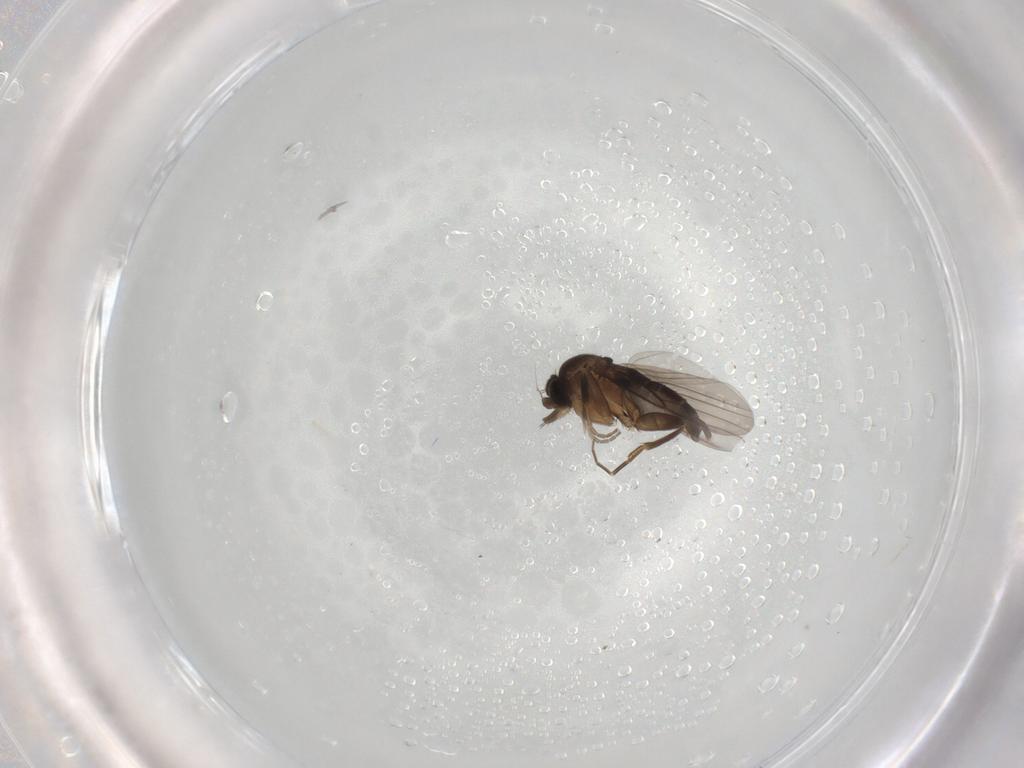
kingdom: Animalia
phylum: Arthropoda
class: Insecta
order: Diptera
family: Phoridae
